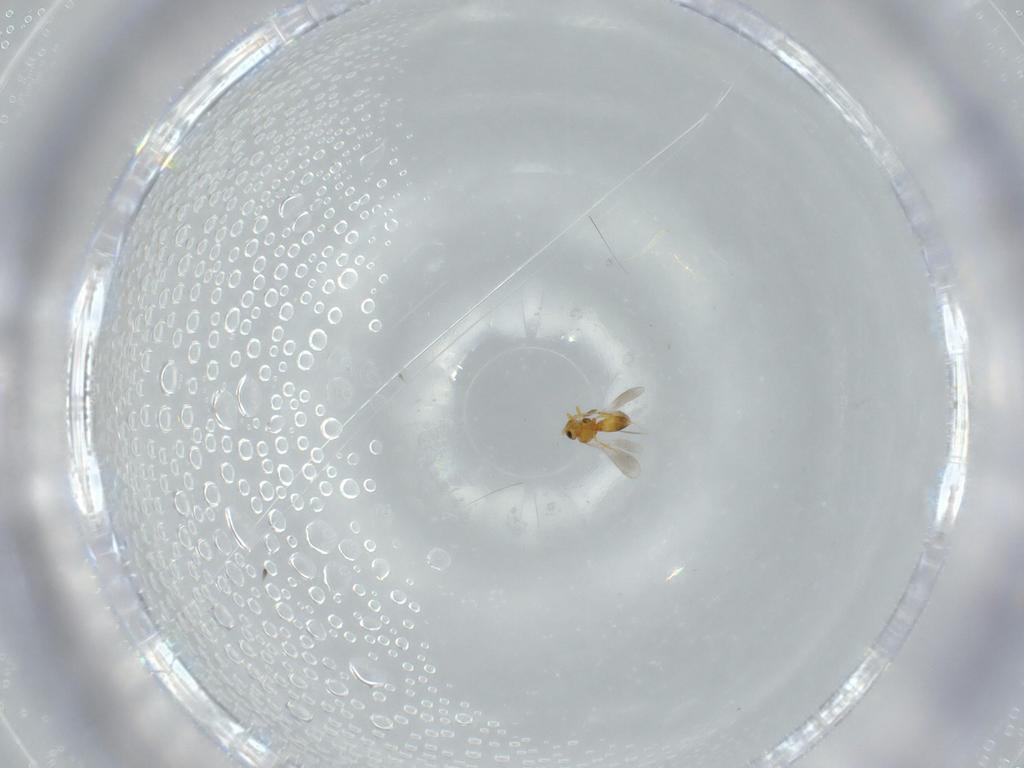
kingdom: Animalia
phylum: Arthropoda
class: Insecta
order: Hymenoptera
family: Platygastridae
